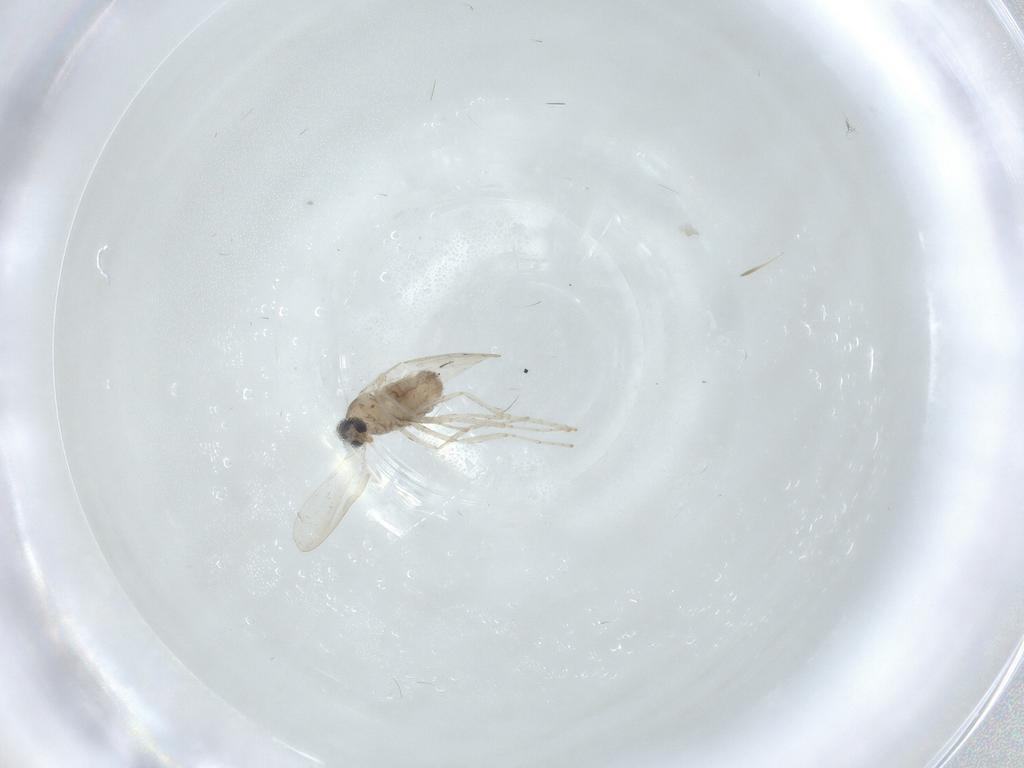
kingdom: Animalia
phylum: Arthropoda
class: Insecta
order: Diptera
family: Cecidomyiidae
